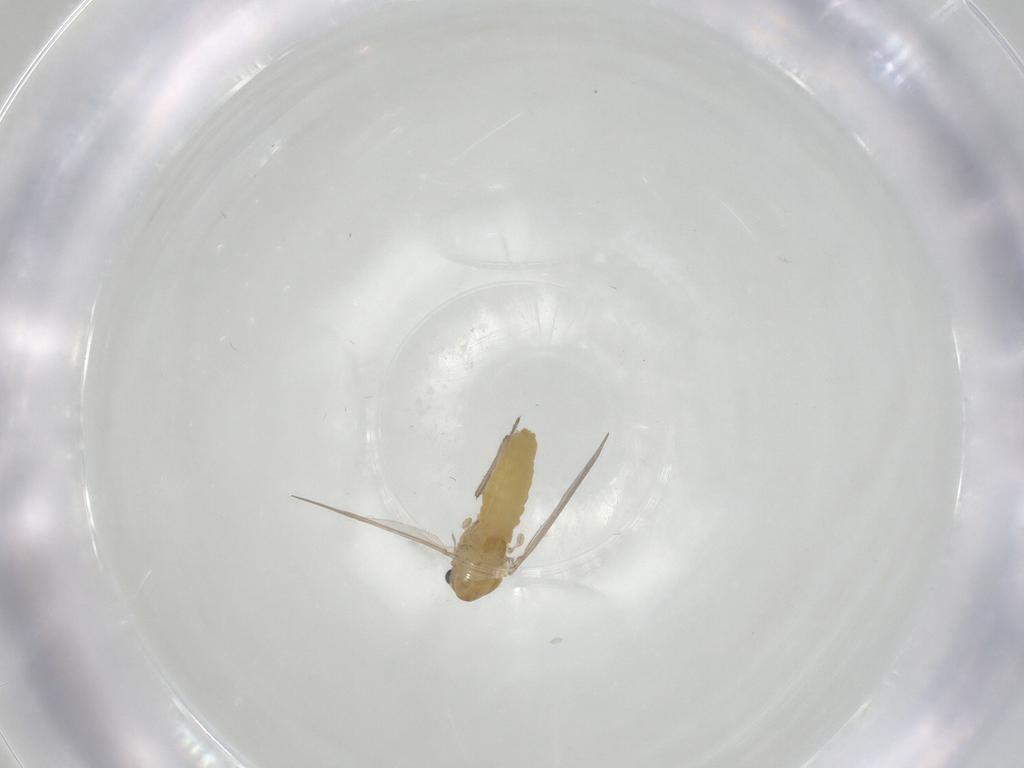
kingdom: Animalia
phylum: Arthropoda
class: Insecta
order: Diptera
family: Chironomidae
